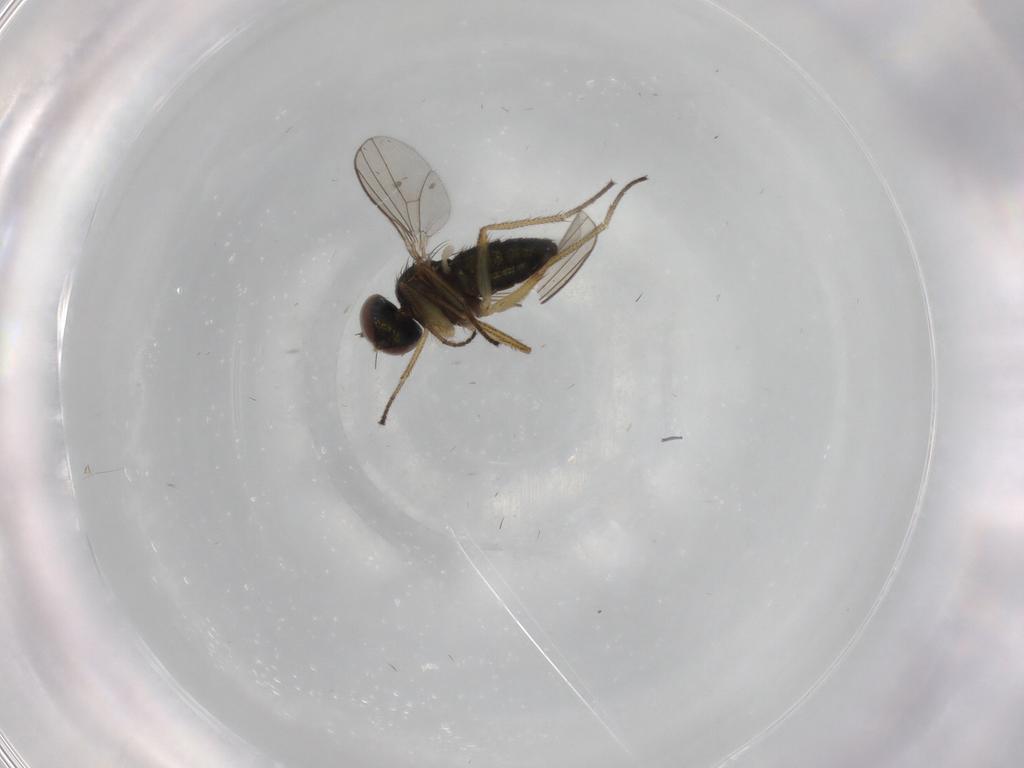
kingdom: Animalia
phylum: Arthropoda
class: Insecta
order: Diptera
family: Dolichopodidae
